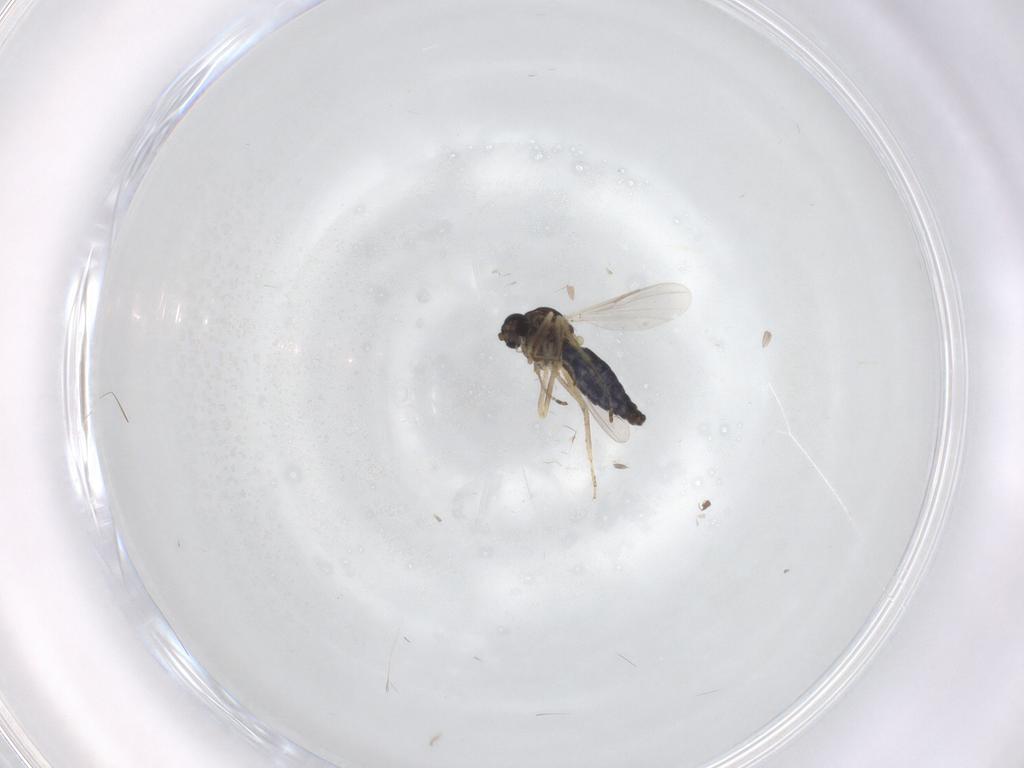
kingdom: Animalia
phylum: Arthropoda
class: Insecta
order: Diptera
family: Ceratopogonidae
